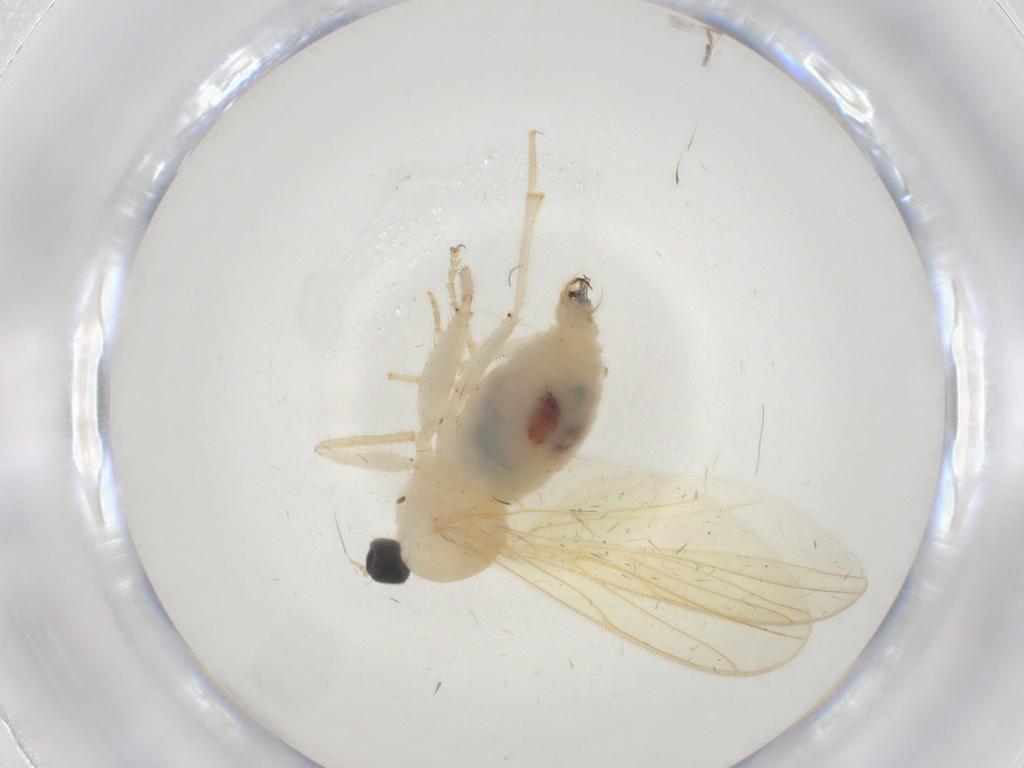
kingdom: Animalia
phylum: Arthropoda
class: Insecta
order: Diptera
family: Hybotidae
